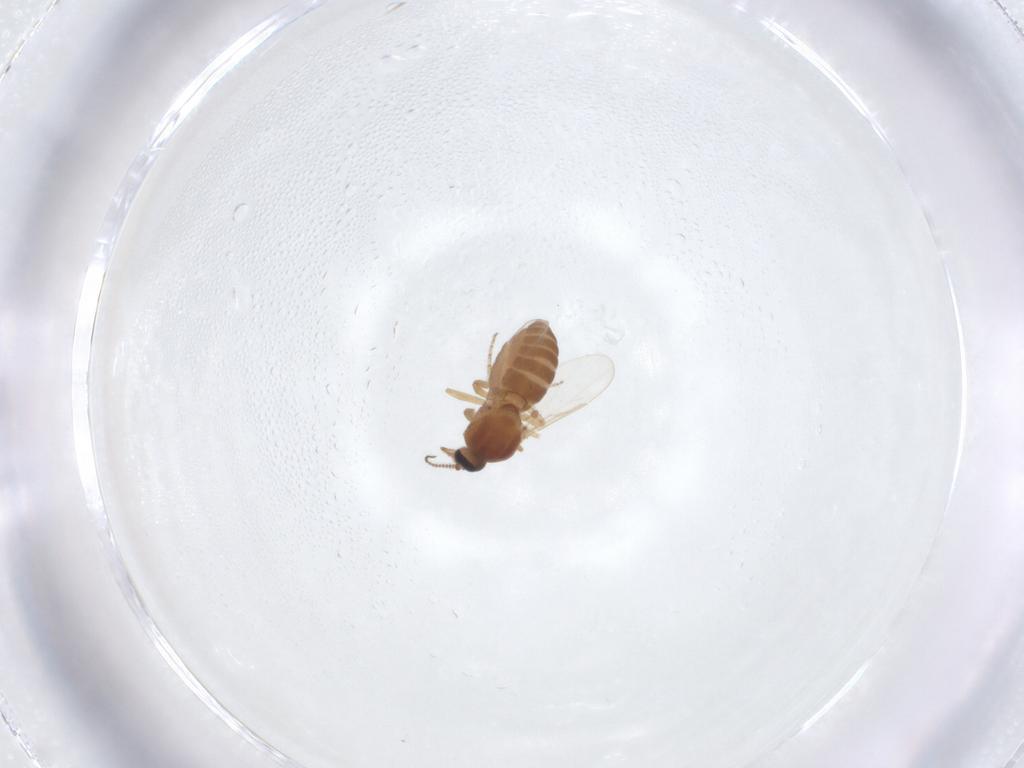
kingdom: Animalia
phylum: Arthropoda
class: Insecta
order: Diptera
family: Ceratopogonidae
